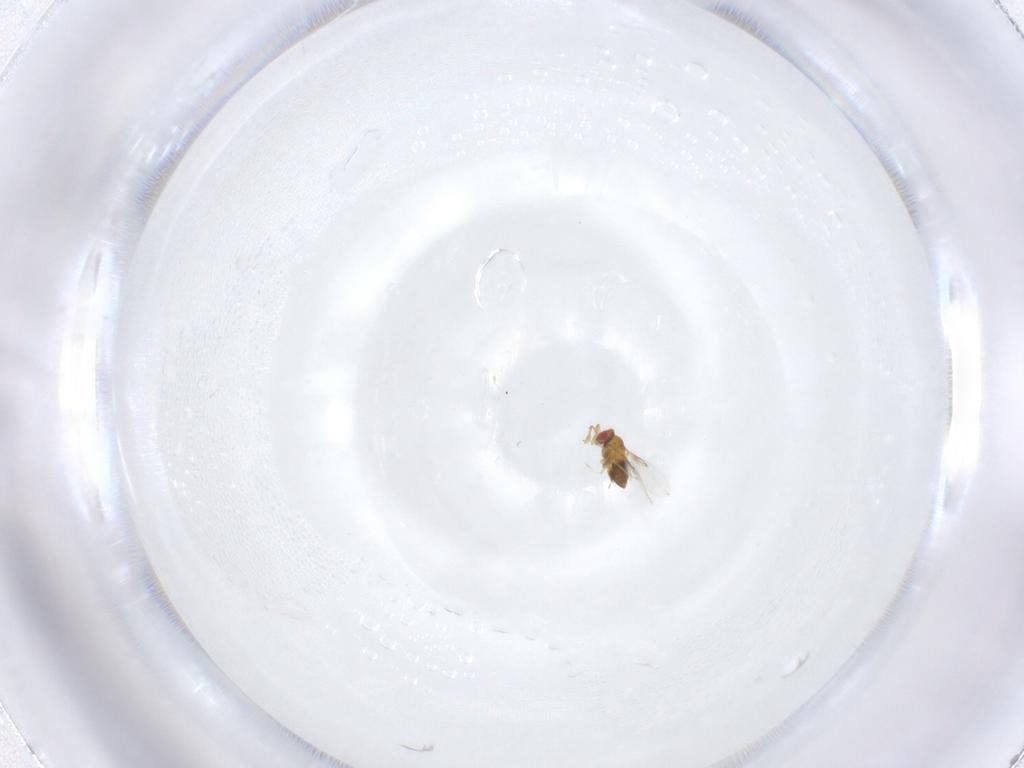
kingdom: Animalia
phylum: Arthropoda
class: Insecta
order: Hymenoptera
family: Trichogrammatidae
